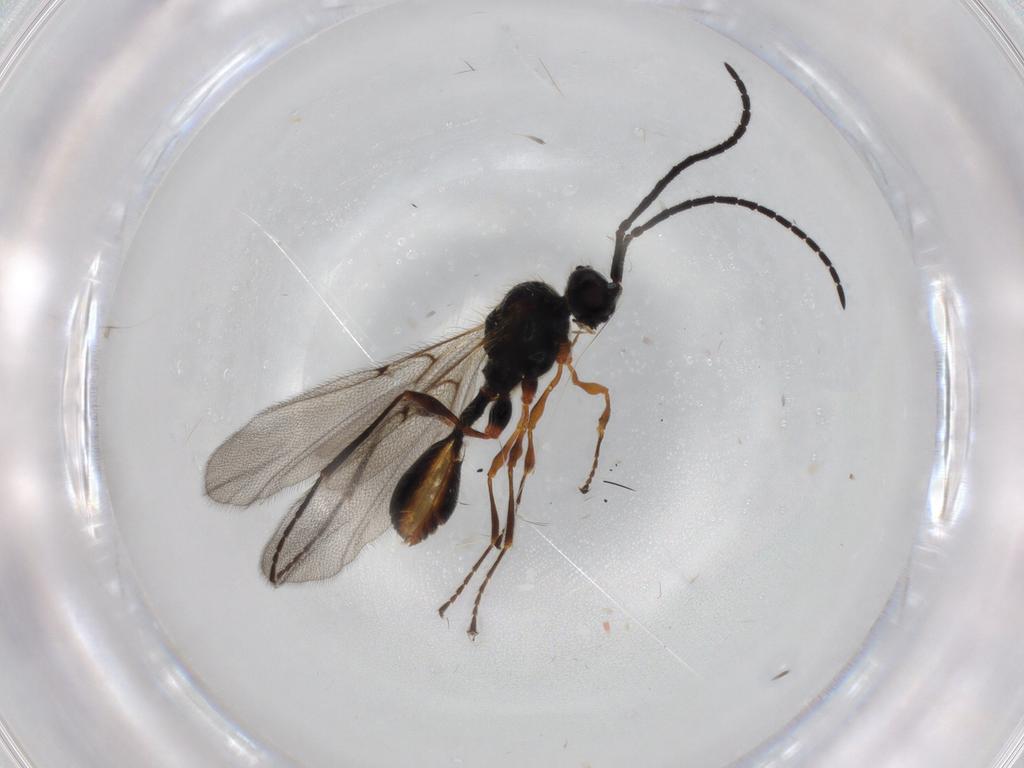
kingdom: Animalia
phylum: Arthropoda
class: Insecta
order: Hymenoptera
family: Diapriidae
